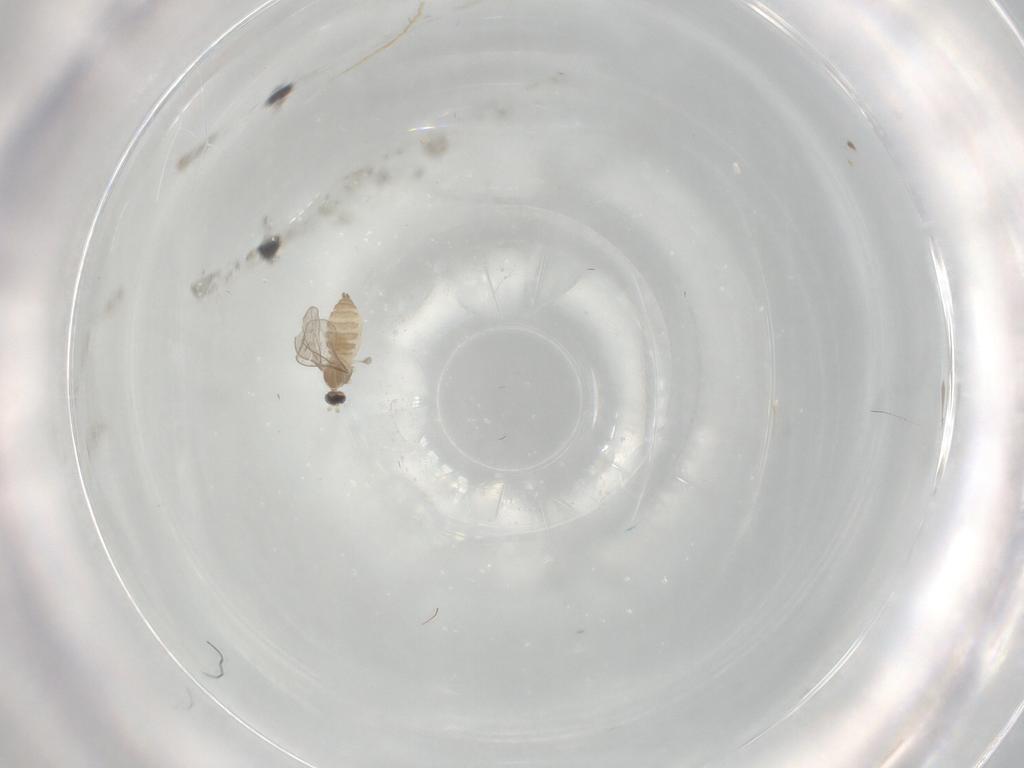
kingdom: Animalia
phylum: Arthropoda
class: Insecta
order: Diptera
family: Cecidomyiidae
